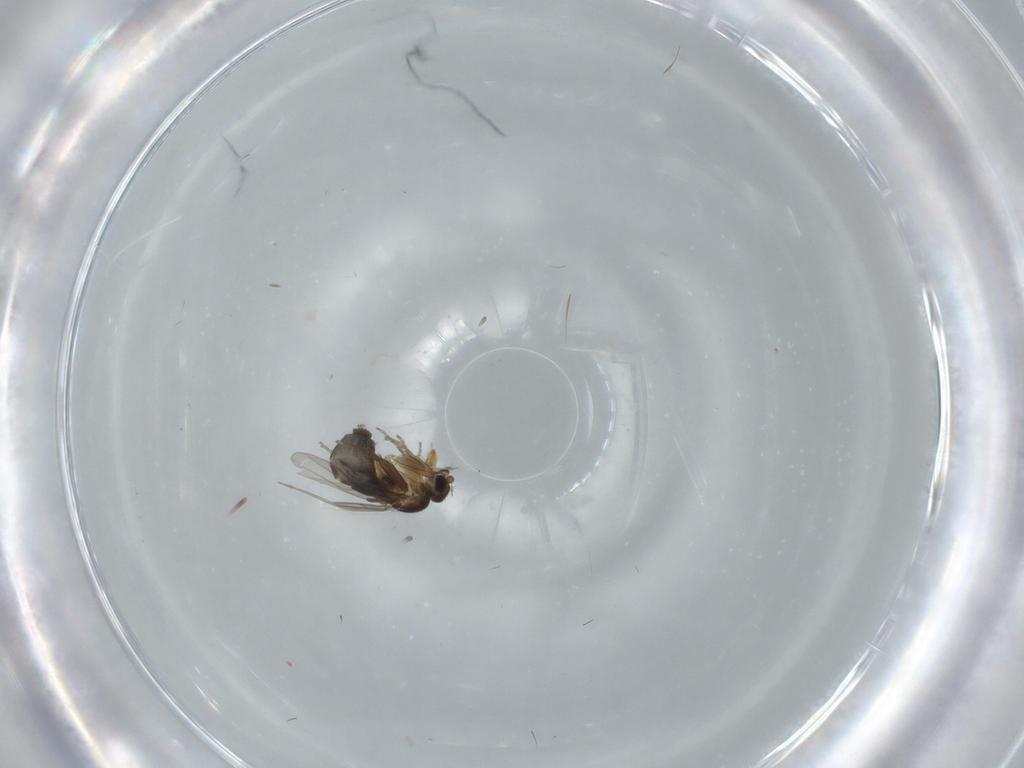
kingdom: Animalia
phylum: Arthropoda
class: Insecta
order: Diptera
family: Phoridae
